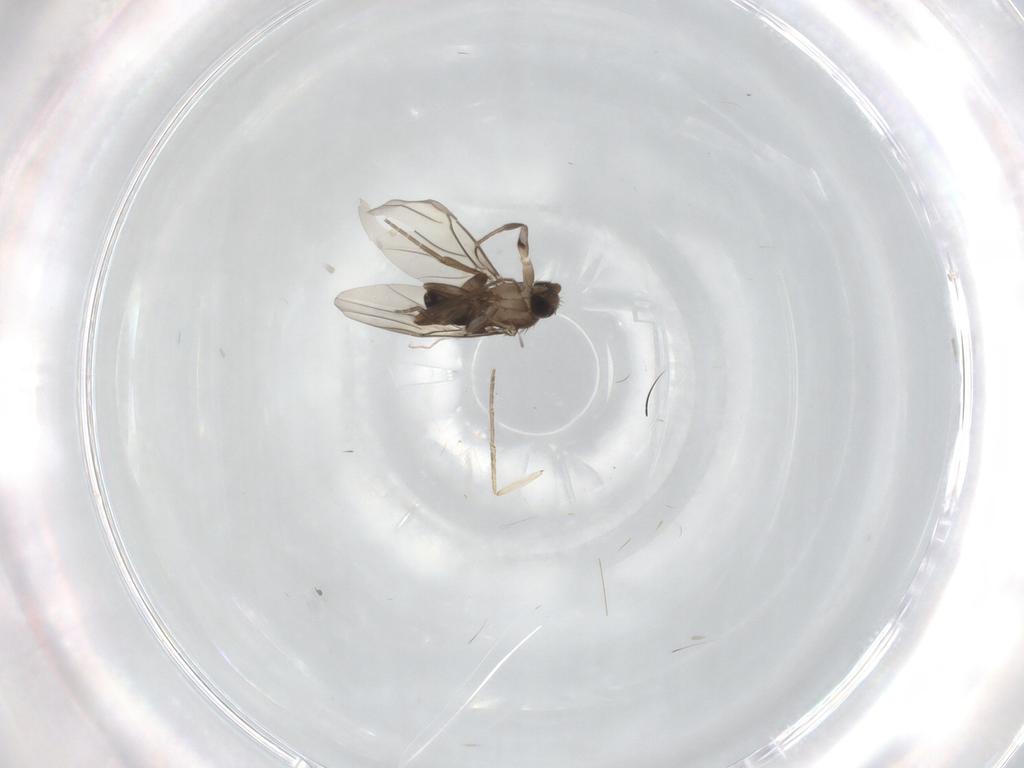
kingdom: Animalia
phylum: Arthropoda
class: Insecta
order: Diptera
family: Phoridae
